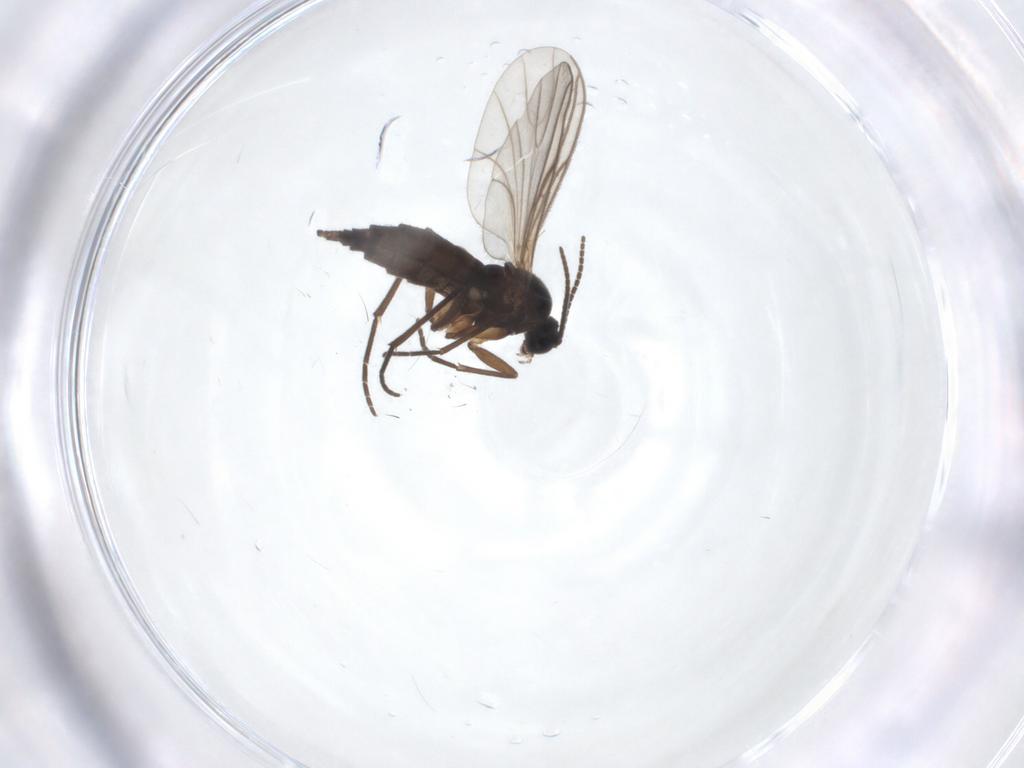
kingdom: Animalia
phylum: Arthropoda
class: Insecta
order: Diptera
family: Sciaridae
